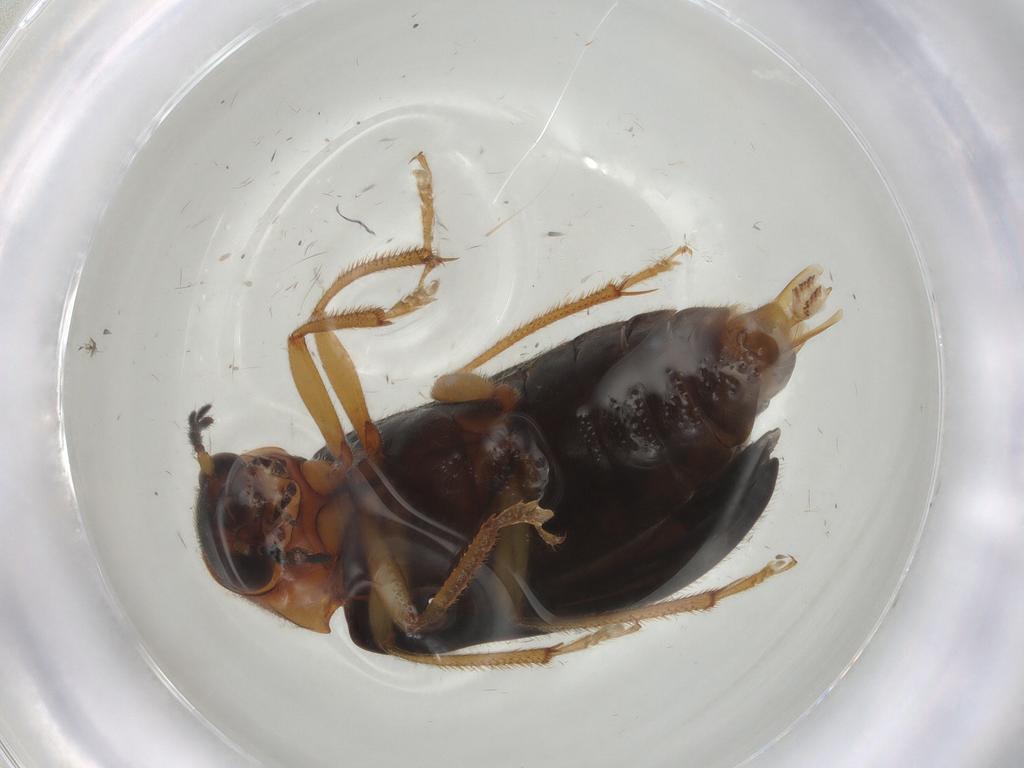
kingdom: Animalia
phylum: Arthropoda
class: Insecta
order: Coleoptera
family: Ptilodactylidae
